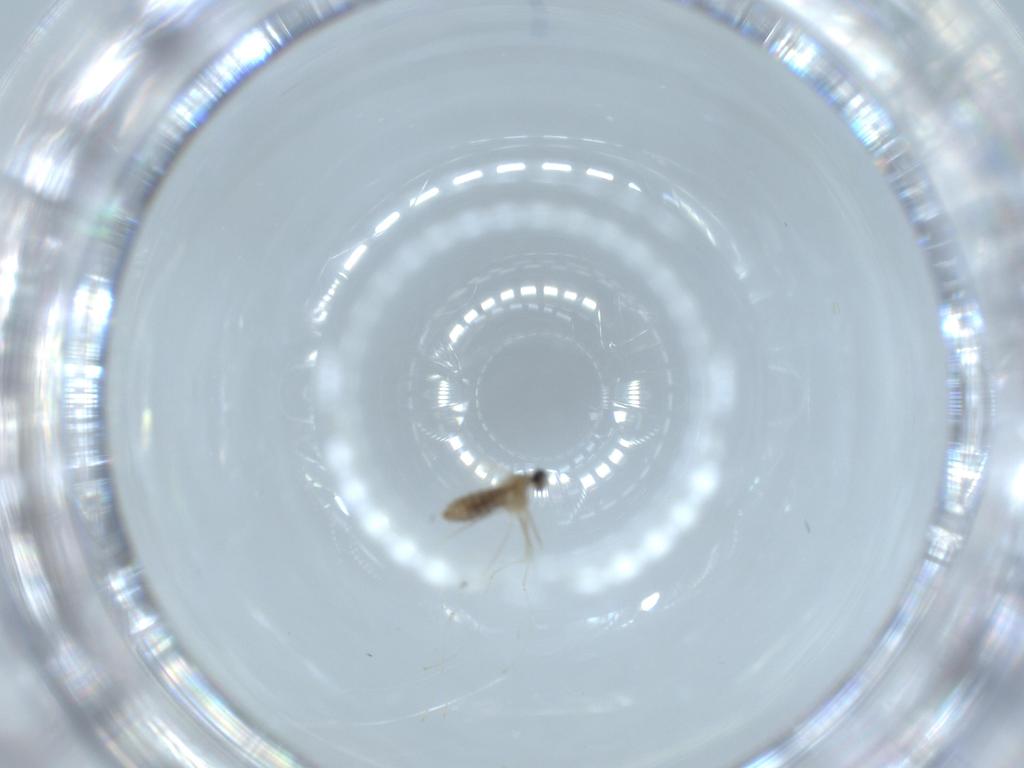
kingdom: Animalia
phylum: Arthropoda
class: Insecta
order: Diptera
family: Cecidomyiidae
